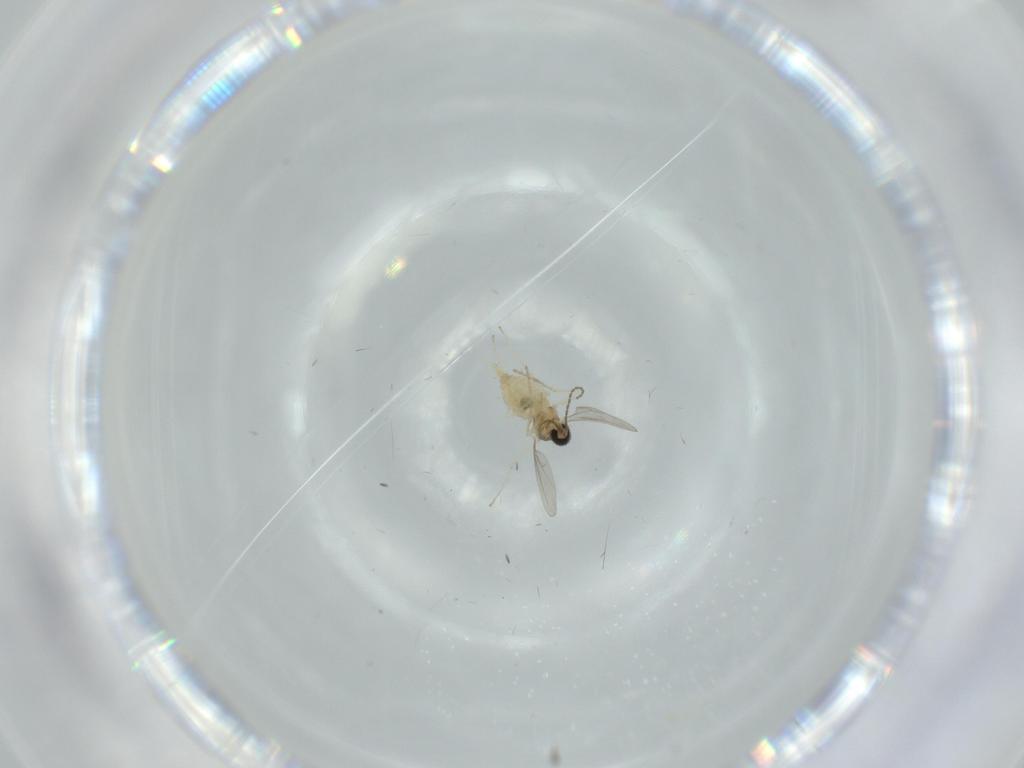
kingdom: Animalia
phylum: Arthropoda
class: Insecta
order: Diptera
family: Cecidomyiidae
